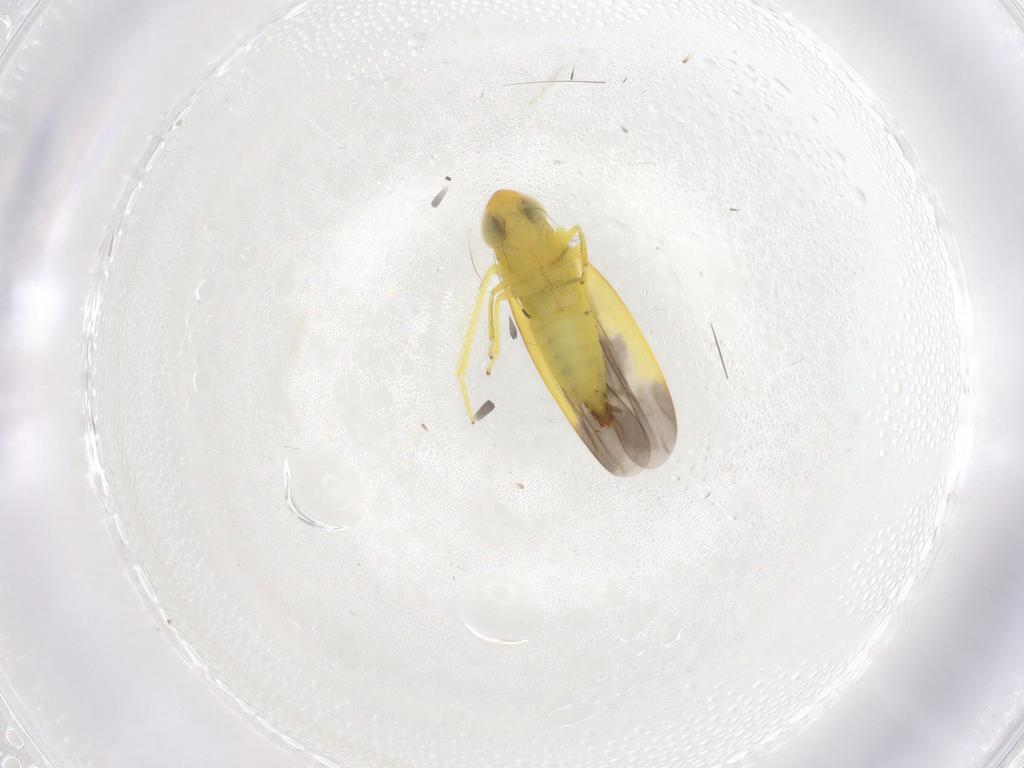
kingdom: Animalia
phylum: Arthropoda
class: Insecta
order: Hemiptera
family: Cicadellidae
